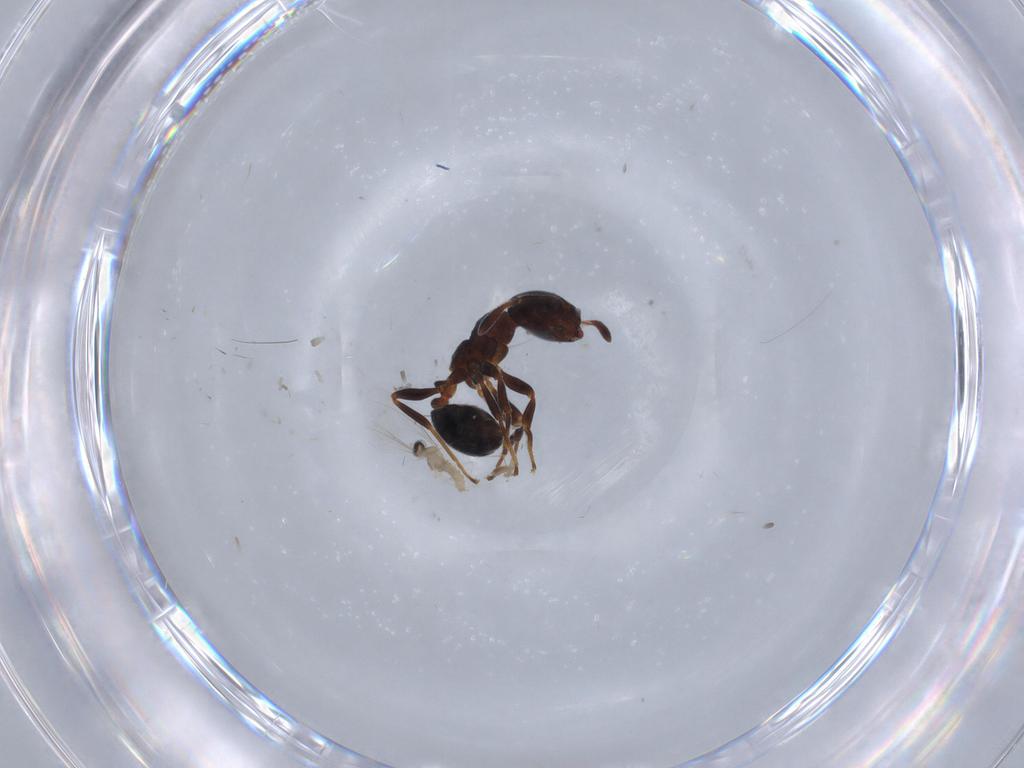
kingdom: Animalia
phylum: Arthropoda
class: Insecta
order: Hymenoptera
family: Formicidae
